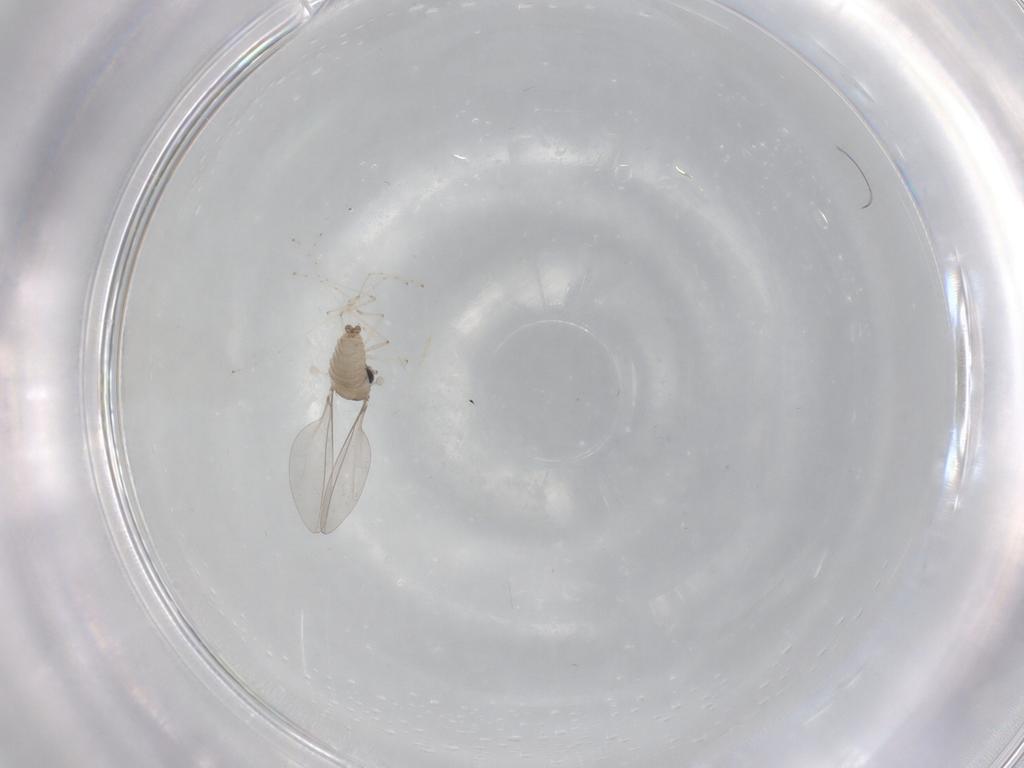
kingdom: Animalia
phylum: Arthropoda
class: Insecta
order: Diptera
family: Cecidomyiidae
